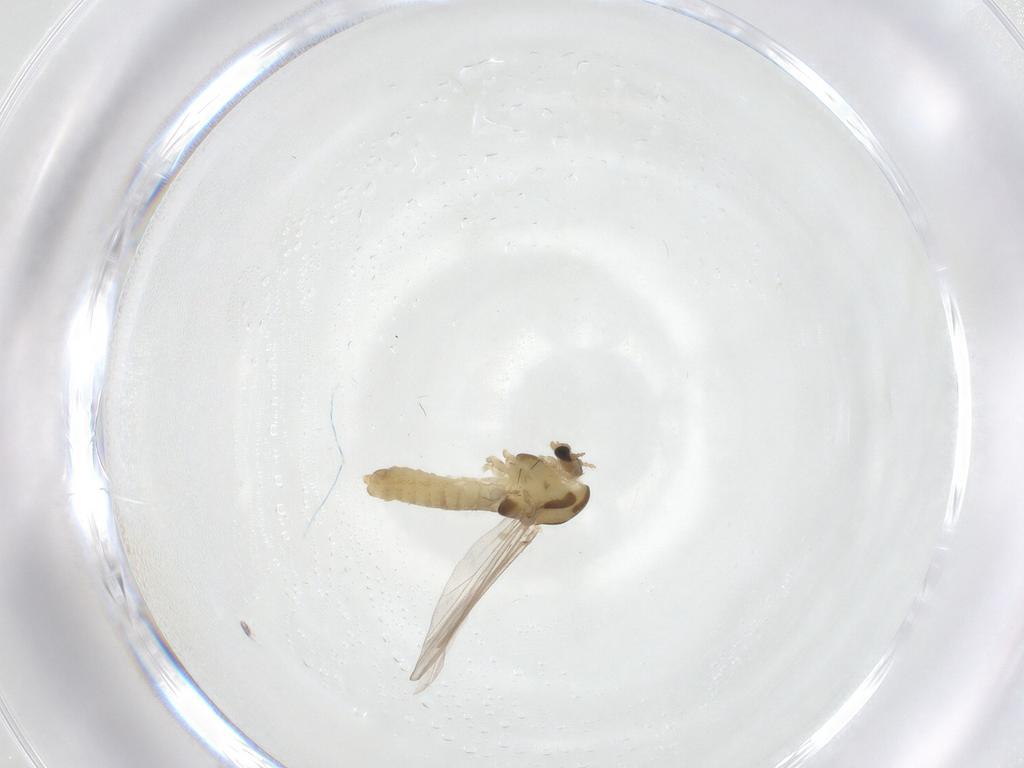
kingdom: Animalia
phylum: Arthropoda
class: Insecta
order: Diptera
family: Chironomidae
